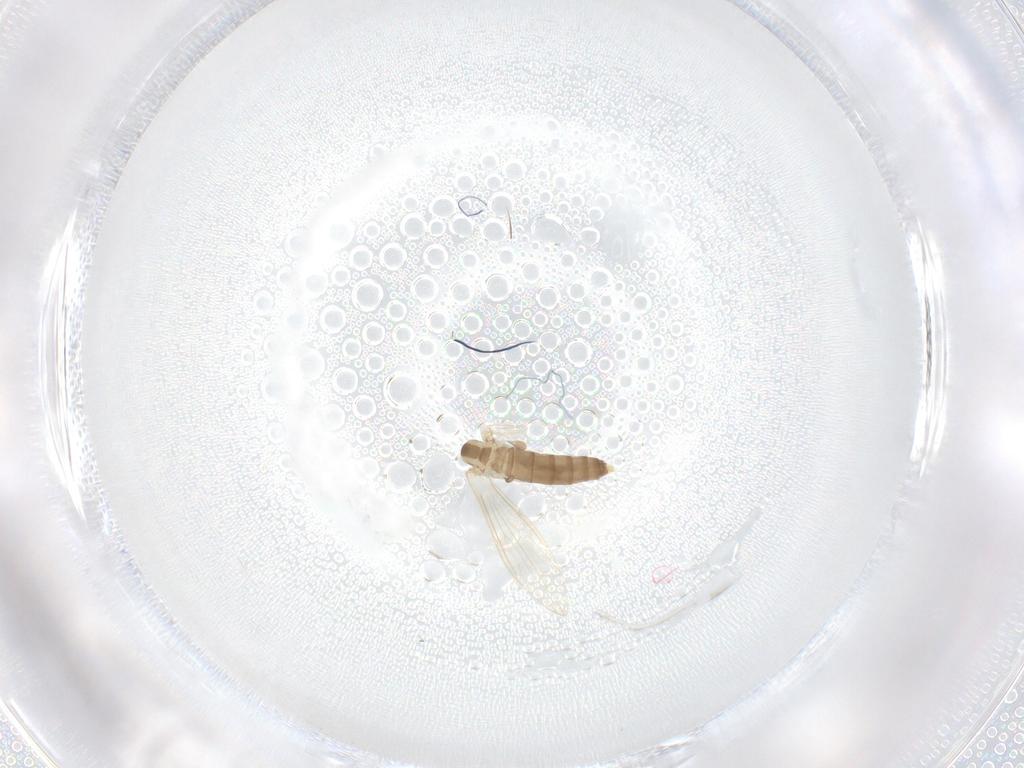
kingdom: Animalia
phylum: Arthropoda
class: Insecta
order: Diptera
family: Psychodidae
